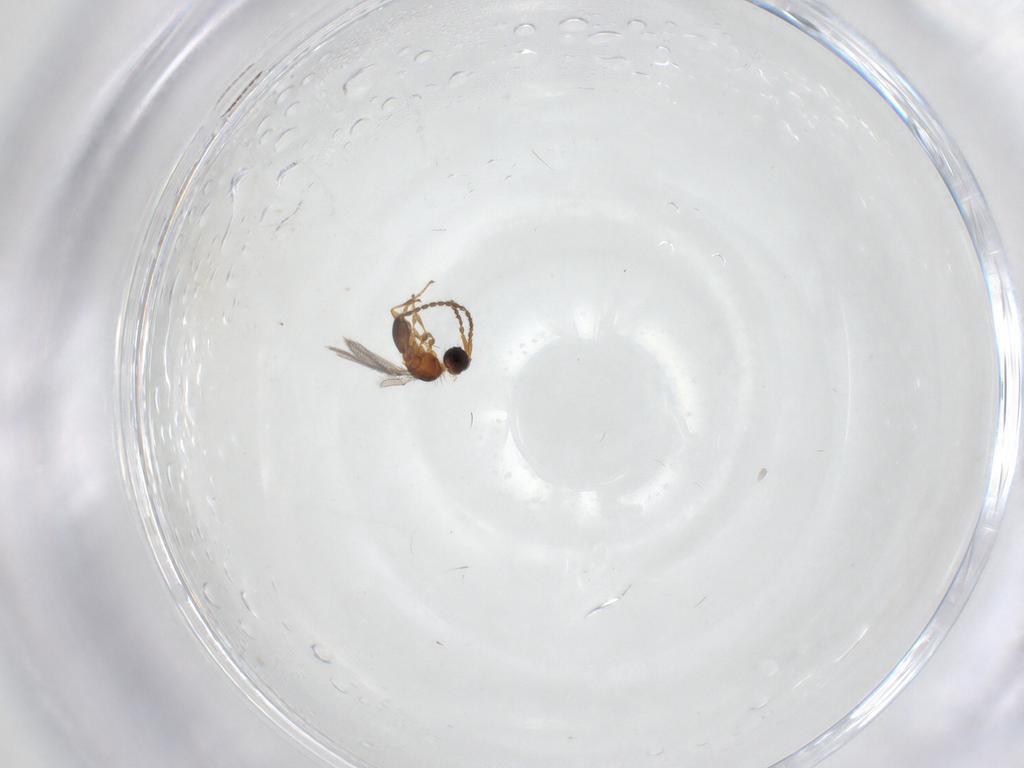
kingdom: Animalia
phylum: Arthropoda
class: Insecta
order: Hymenoptera
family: Diapriidae
